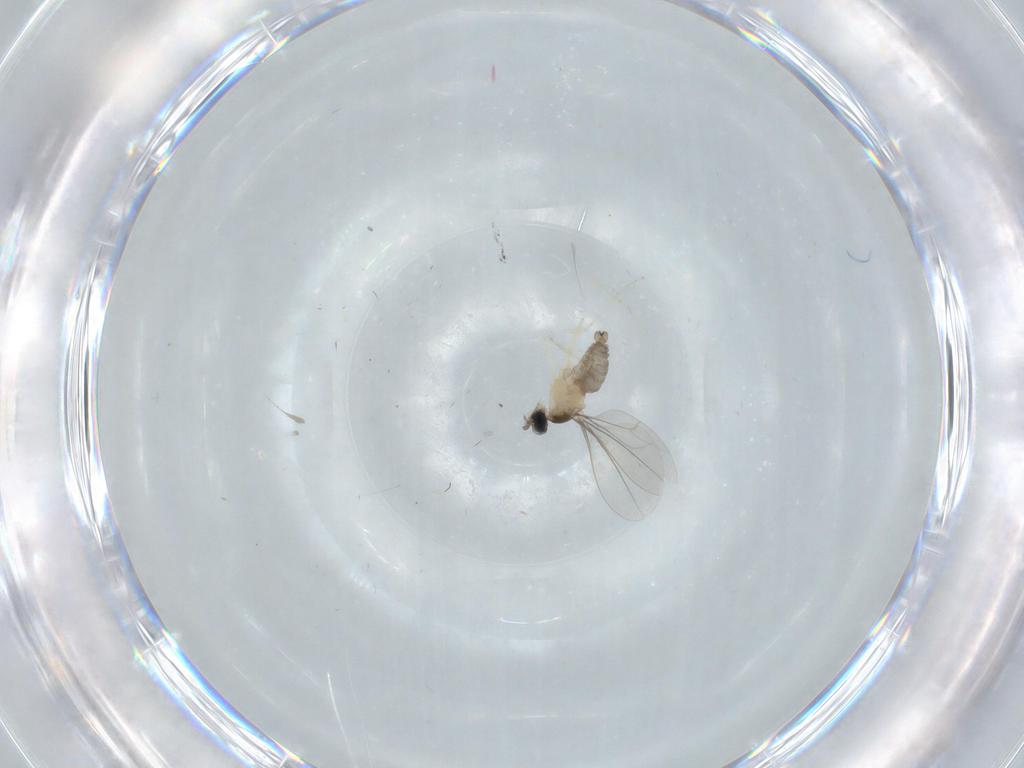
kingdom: Animalia
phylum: Arthropoda
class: Insecta
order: Diptera
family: Cecidomyiidae
